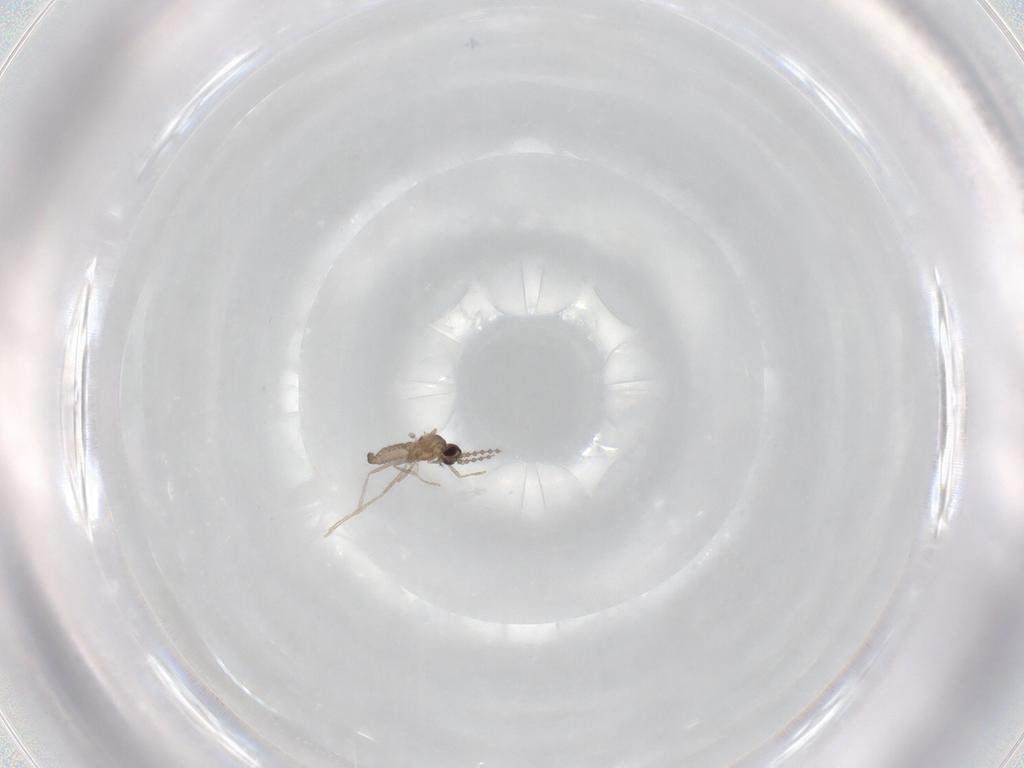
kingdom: Animalia
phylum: Arthropoda
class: Insecta
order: Diptera
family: Cecidomyiidae
